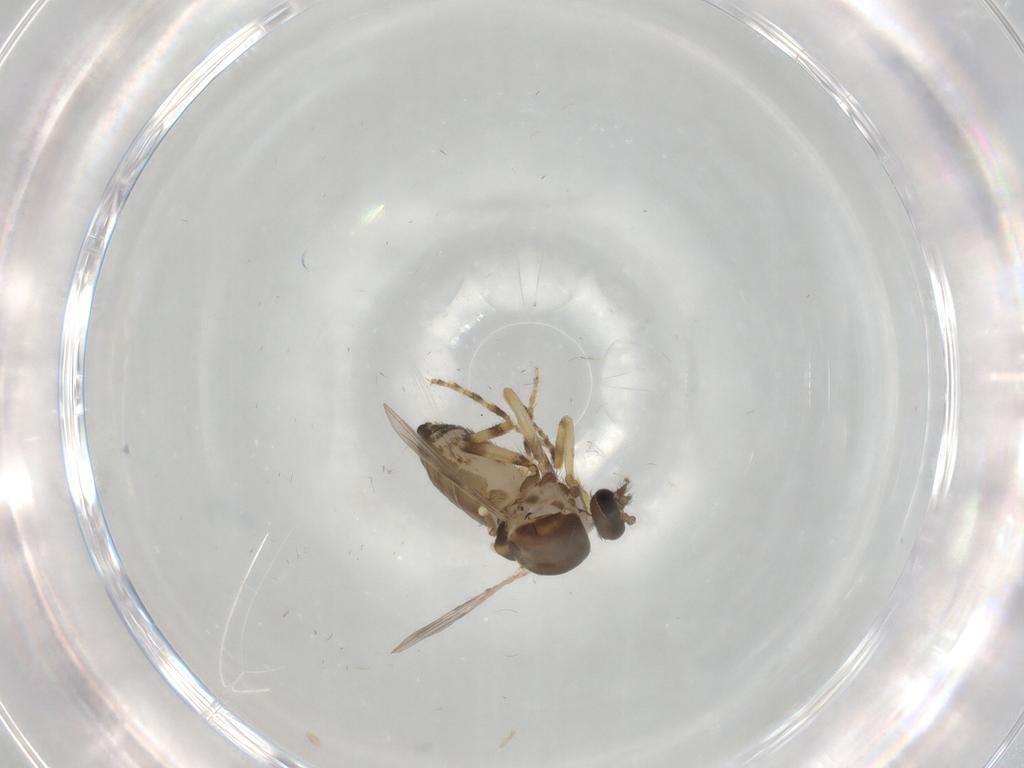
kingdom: Animalia
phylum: Arthropoda
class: Insecta
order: Diptera
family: Ceratopogonidae
